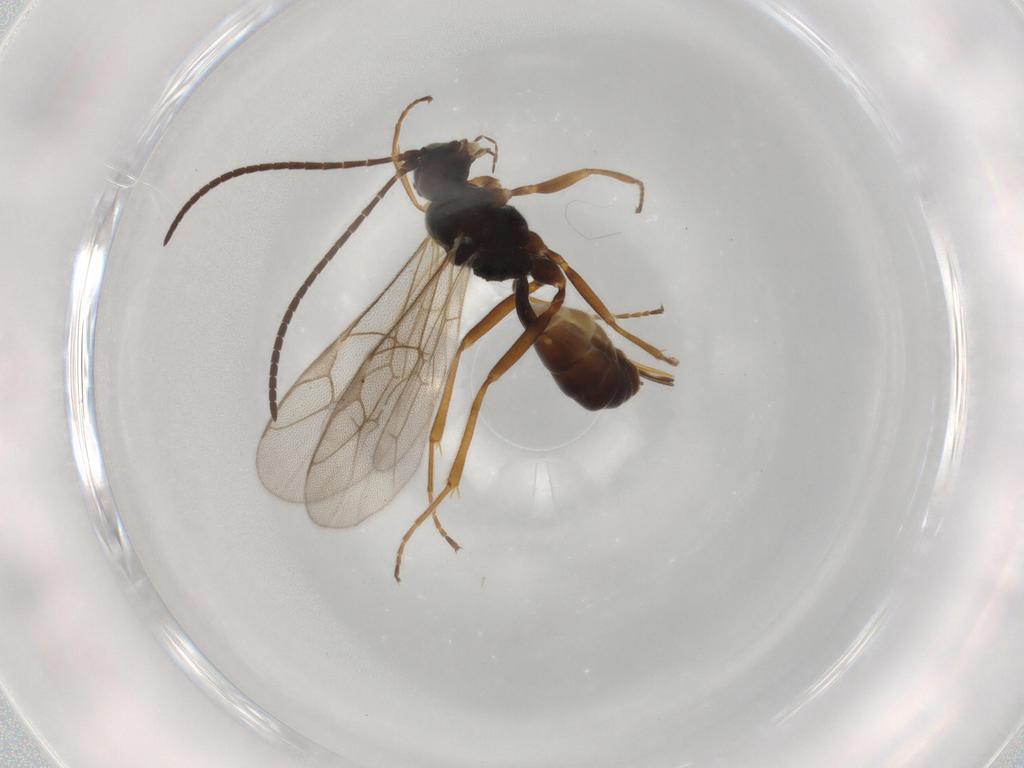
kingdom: Animalia
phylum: Arthropoda
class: Insecta
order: Hymenoptera
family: Ichneumonidae
